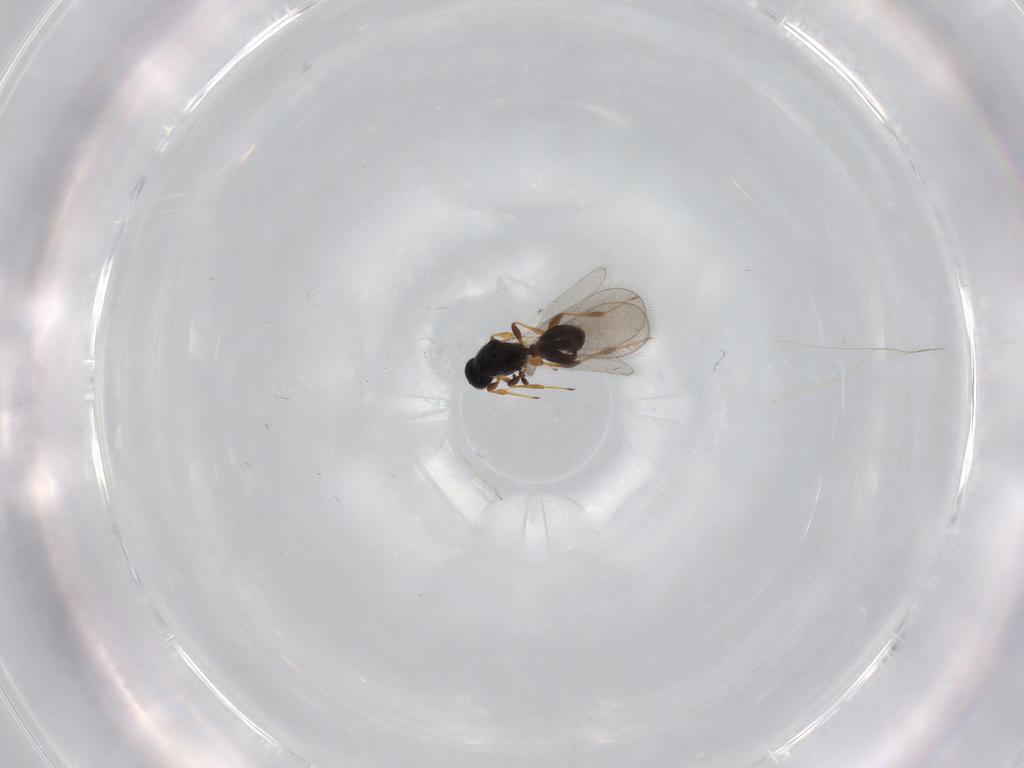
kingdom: Animalia
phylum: Arthropoda
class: Insecta
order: Hymenoptera
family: Platygastridae
